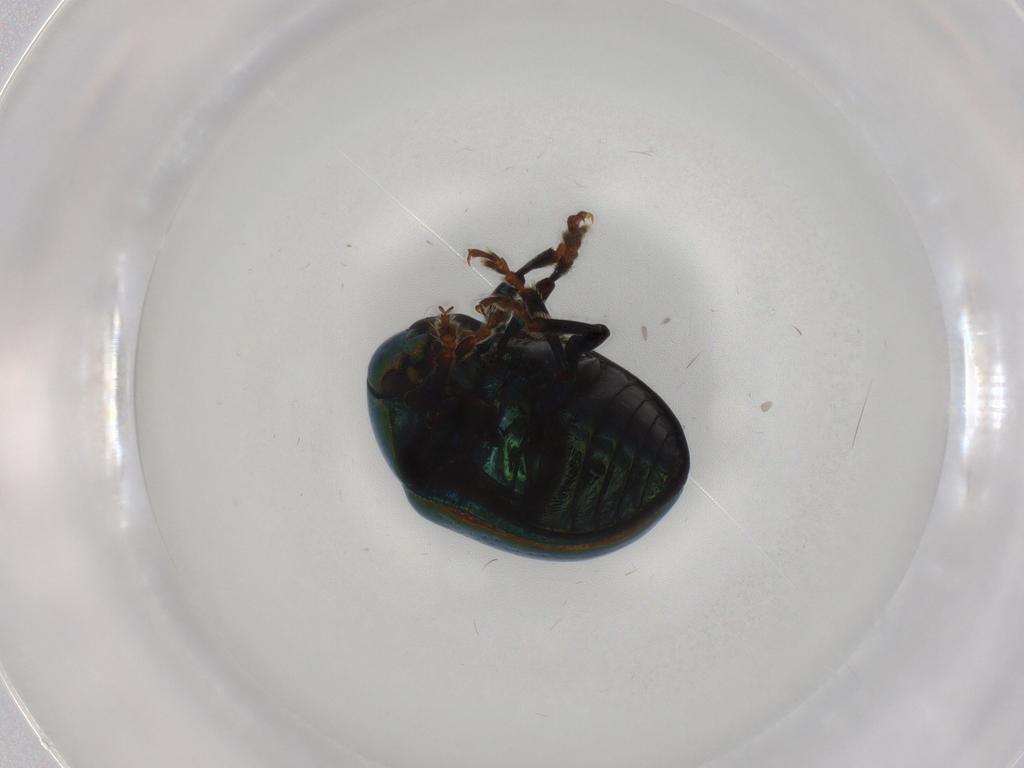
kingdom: Animalia
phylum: Arthropoda
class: Insecta
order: Coleoptera
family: Chrysomelidae
